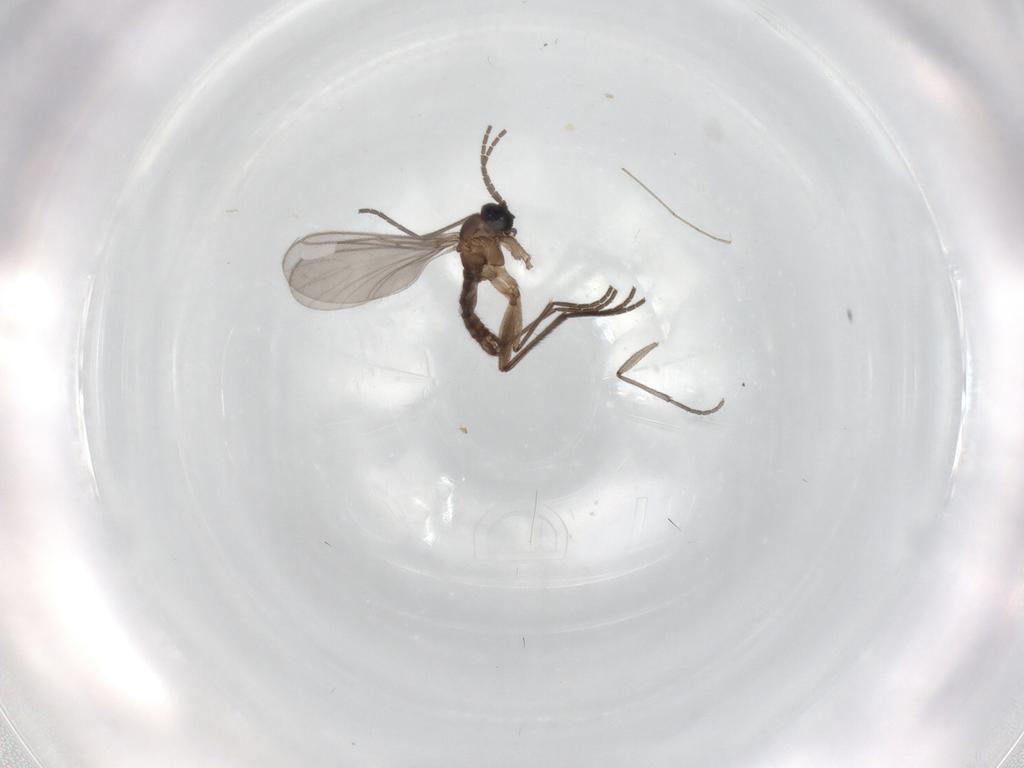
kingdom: Animalia
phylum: Arthropoda
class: Insecta
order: Diptera
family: Sciaridae
